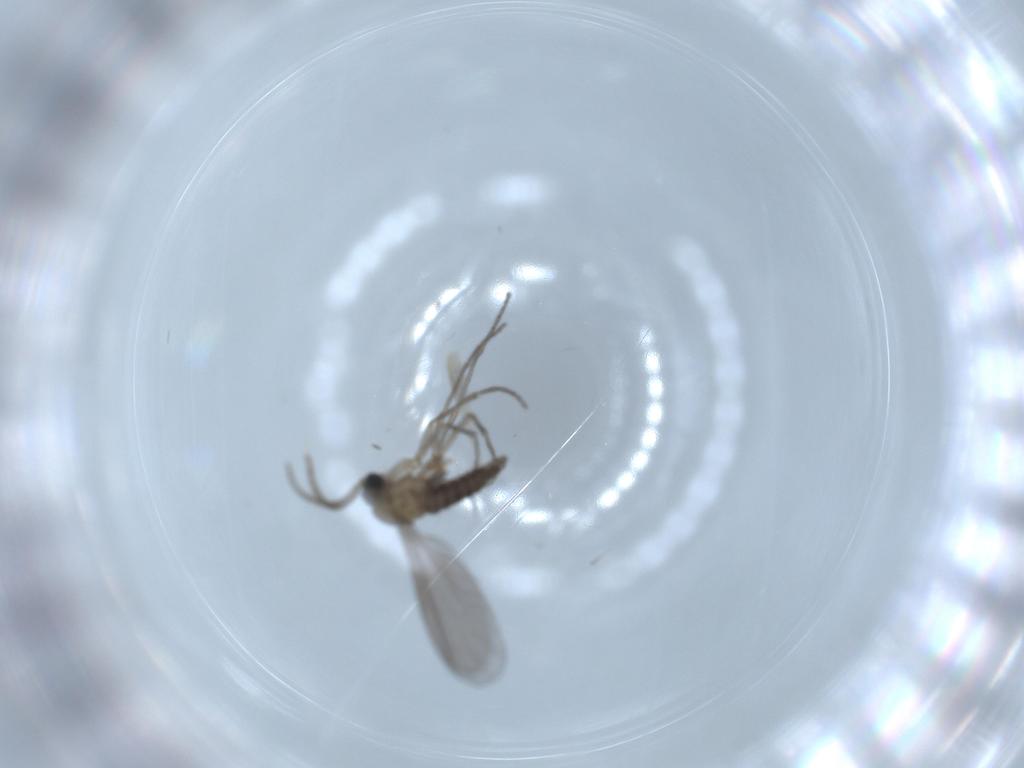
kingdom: Animalia
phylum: Arthropoda
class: Insecta
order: Diptera
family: Sciaridae
